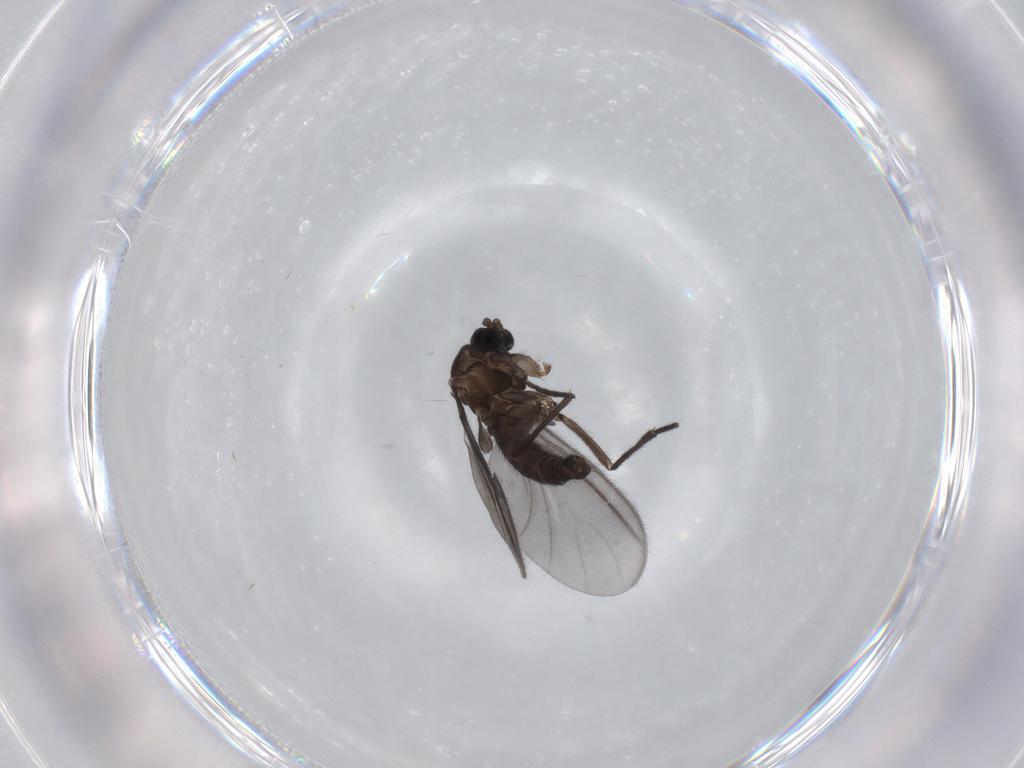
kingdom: Animalia
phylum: Arthropoda
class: Insecta
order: Diptera
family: Sciaridae
